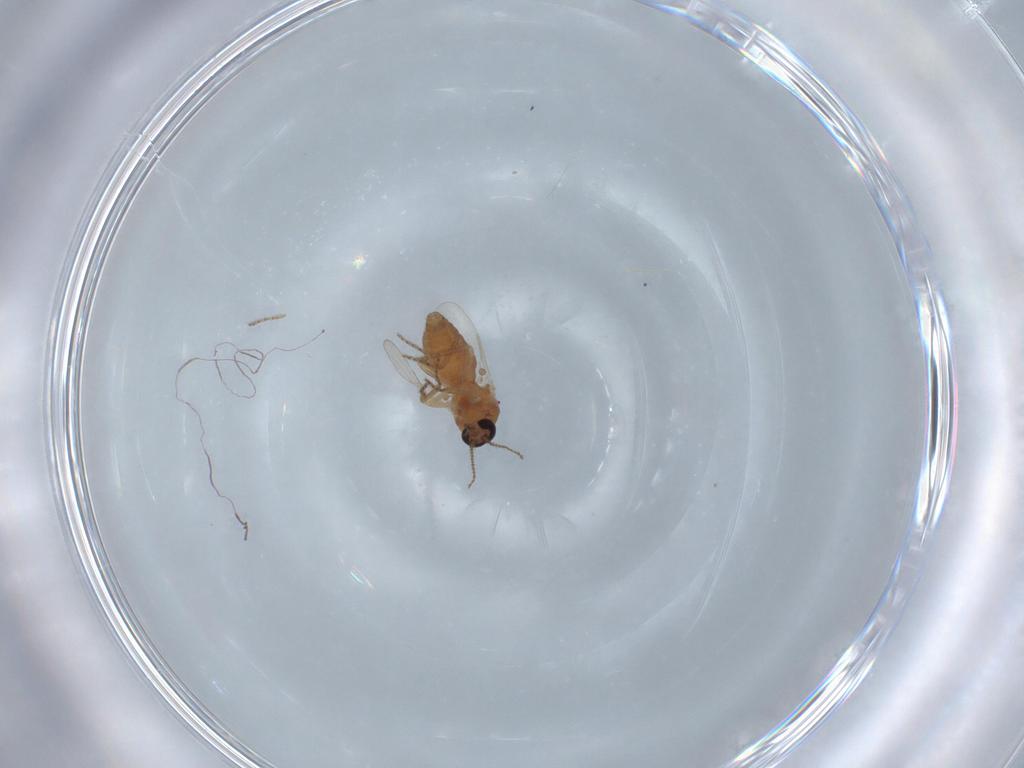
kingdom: Animalia
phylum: Arthropoda
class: Insecta
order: Diptera
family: Ceratopogonidae
